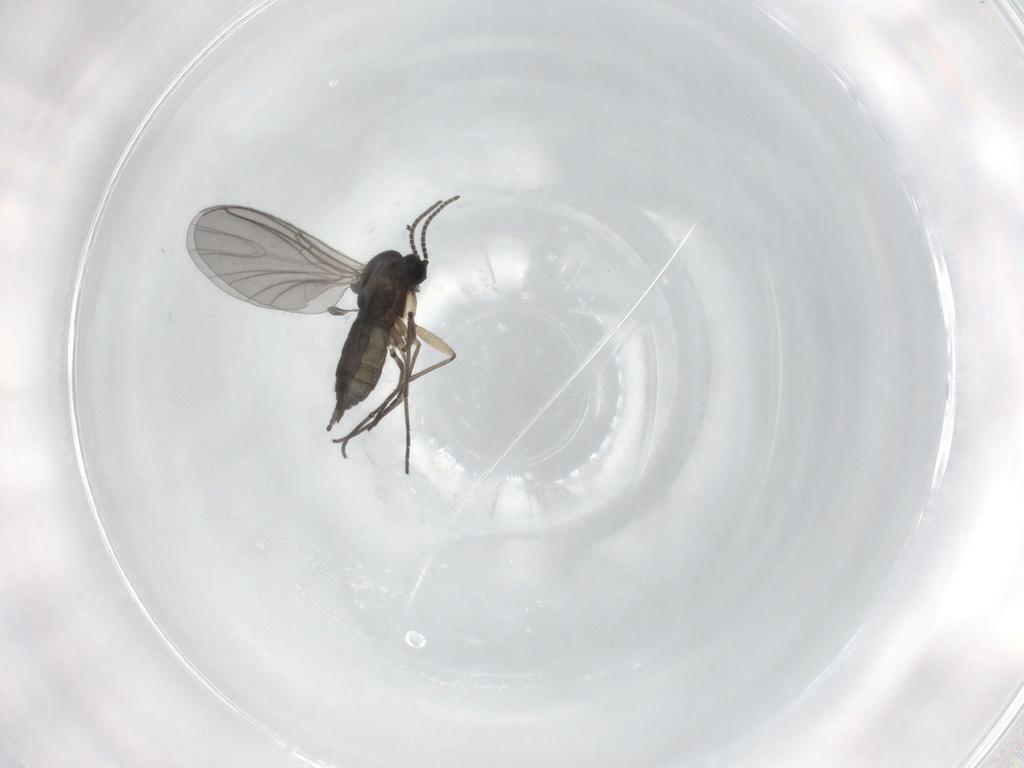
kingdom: Animalia
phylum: Arthropoda
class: Insecta
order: Diptera
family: Sciaridae
